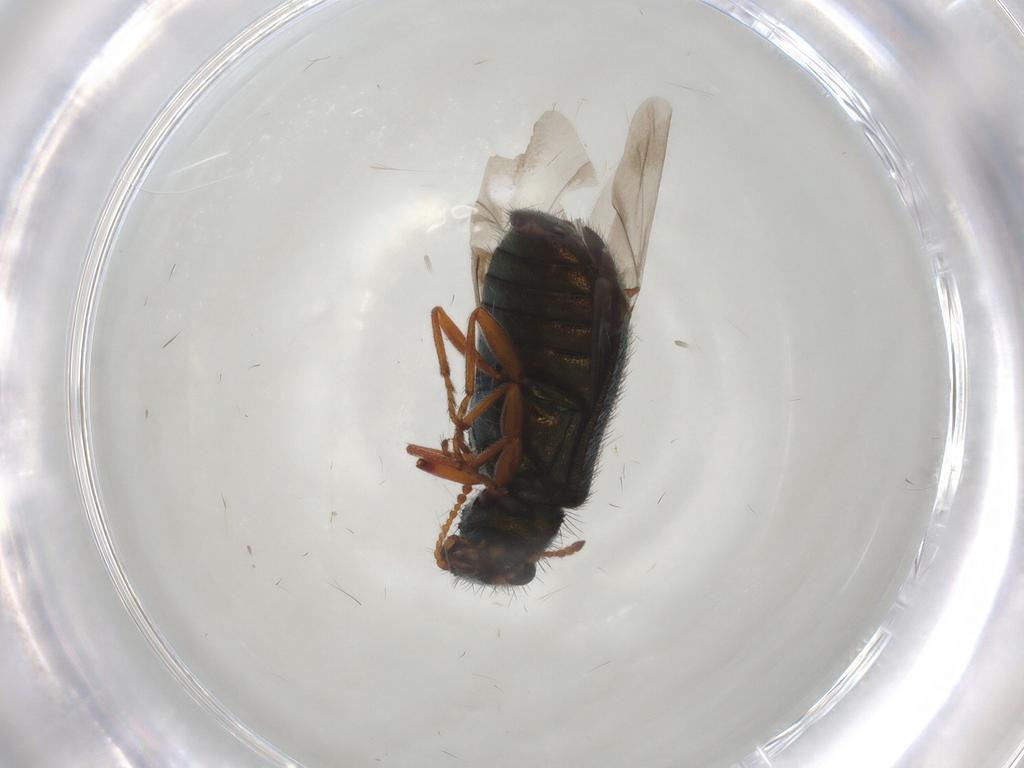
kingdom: Animalia
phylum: Arthropoda
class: Insecta
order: Coleoptera
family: Melyridae
